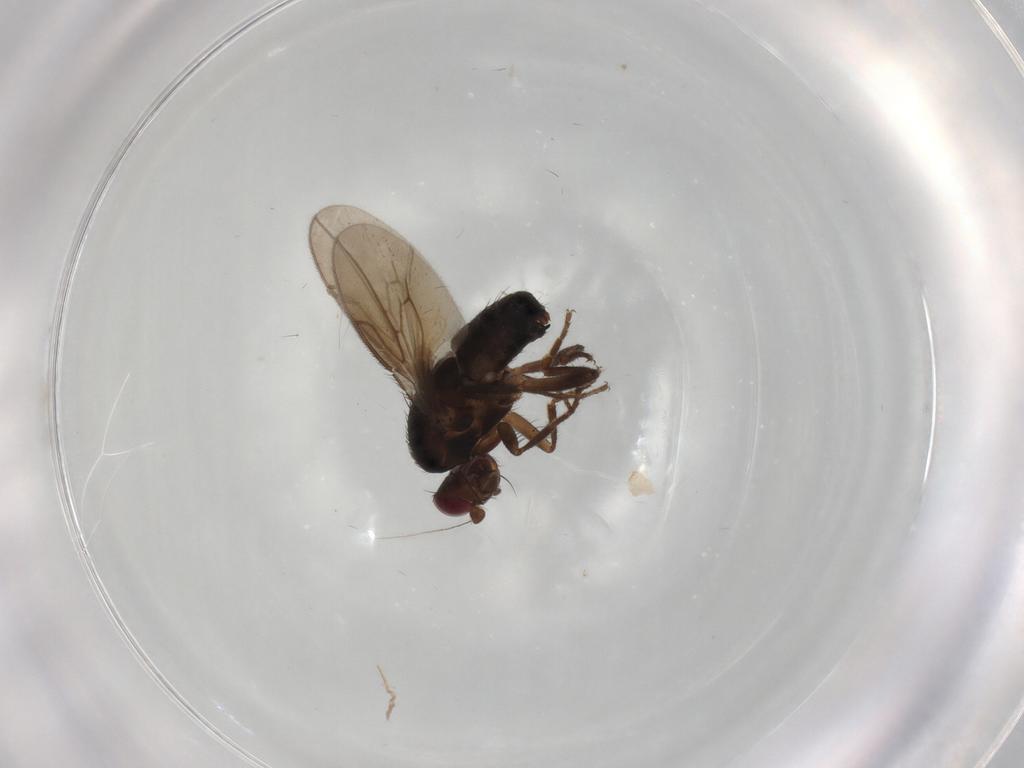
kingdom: Animalia
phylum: Arthropoda
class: Insecta
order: Diptera
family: Sphaeroceridae
